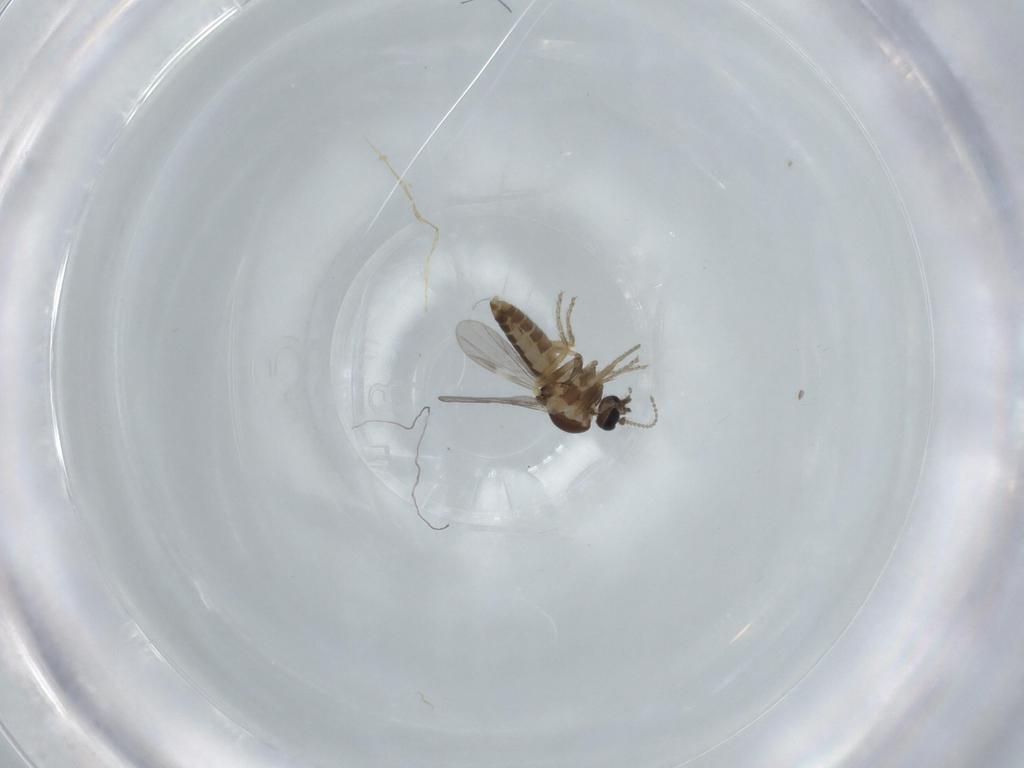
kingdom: Animalia
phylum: Arthropoda
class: Insecta
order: Diptera
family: Ceratopogonidae
